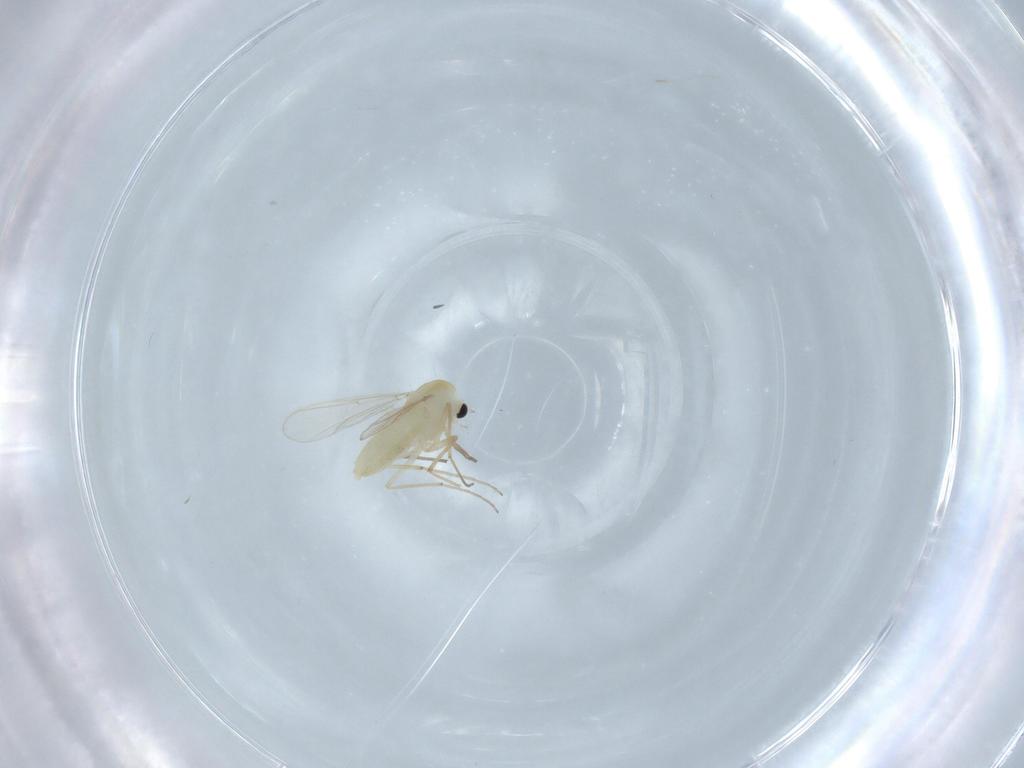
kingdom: Animalia
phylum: Arthropoda
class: Insecta
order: Diptera
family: Chironomidae
